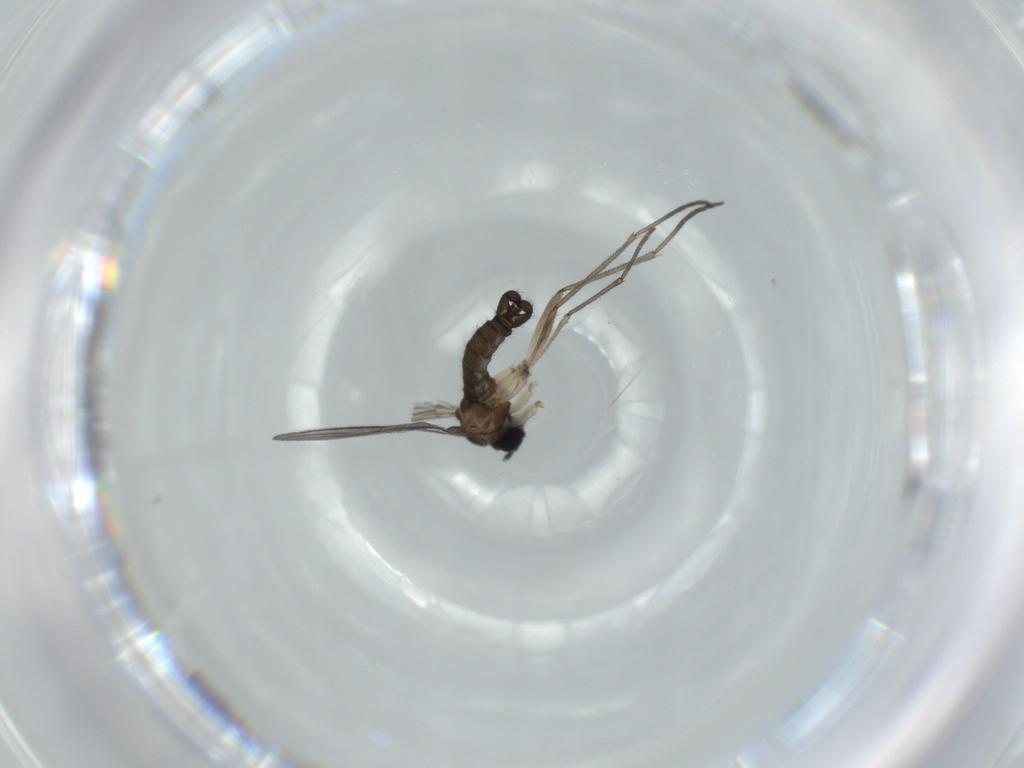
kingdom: Animalia
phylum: Arthropoda
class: Insecta
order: Diptera
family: Sciaridae
